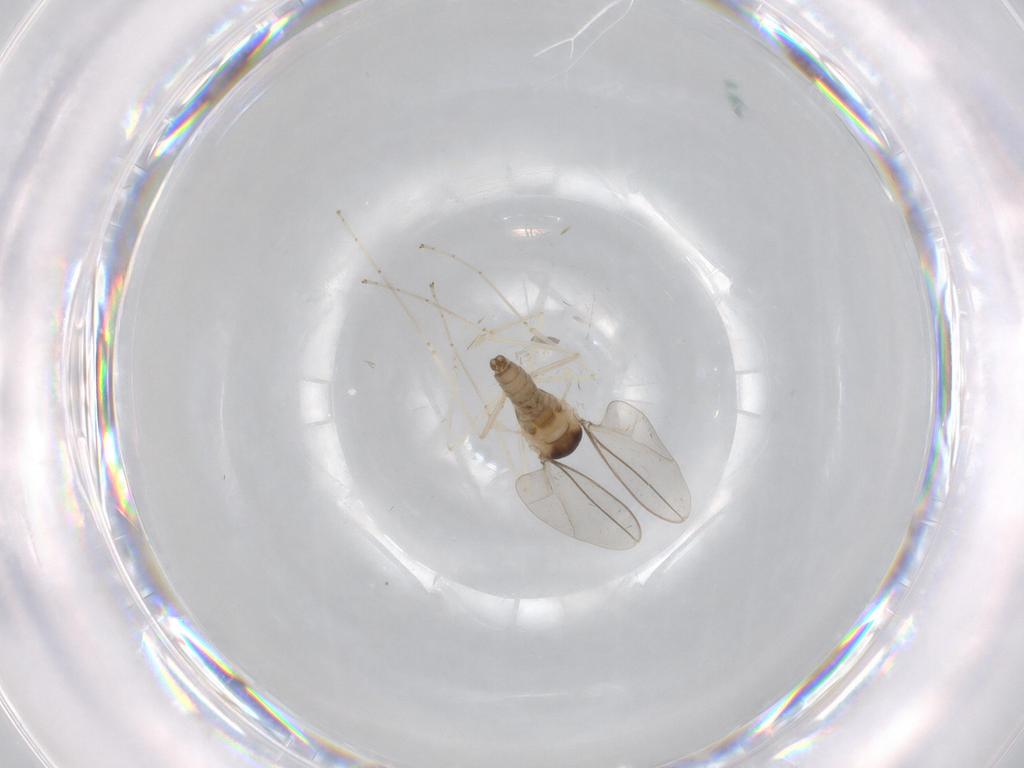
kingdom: Animalia
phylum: Arthropoda
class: Insecta
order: Diptera
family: Cecidomyiidae
